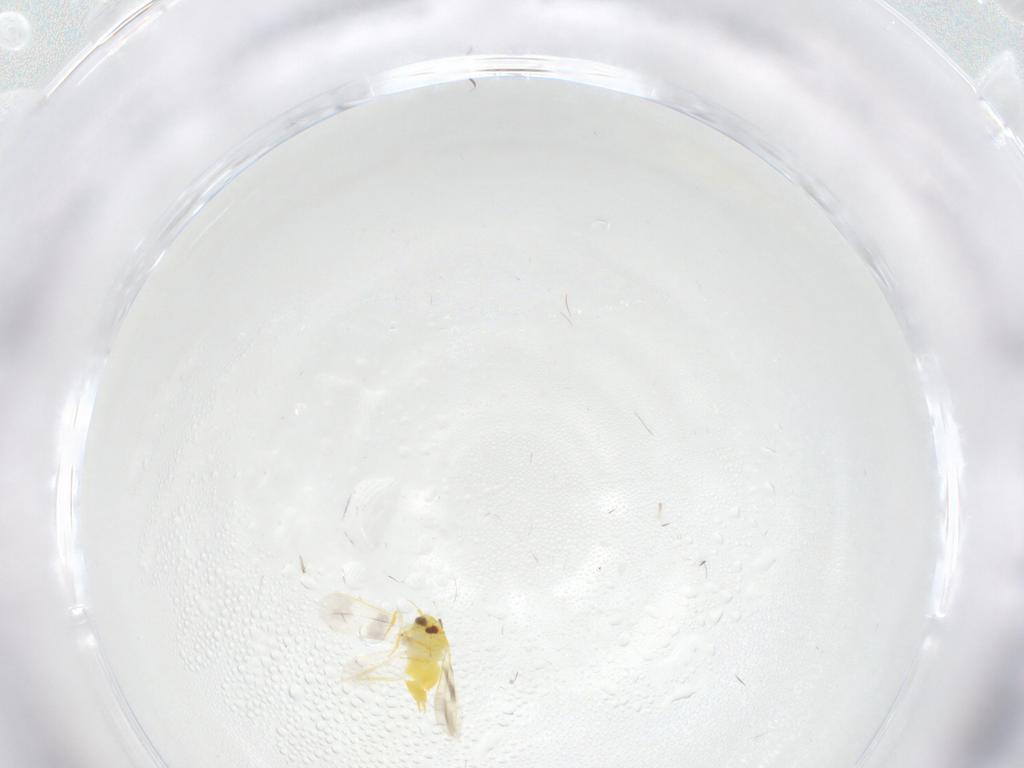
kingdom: Animalia
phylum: Arthropoda
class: Insecta
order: Hemiptera
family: Aleyrodidae
